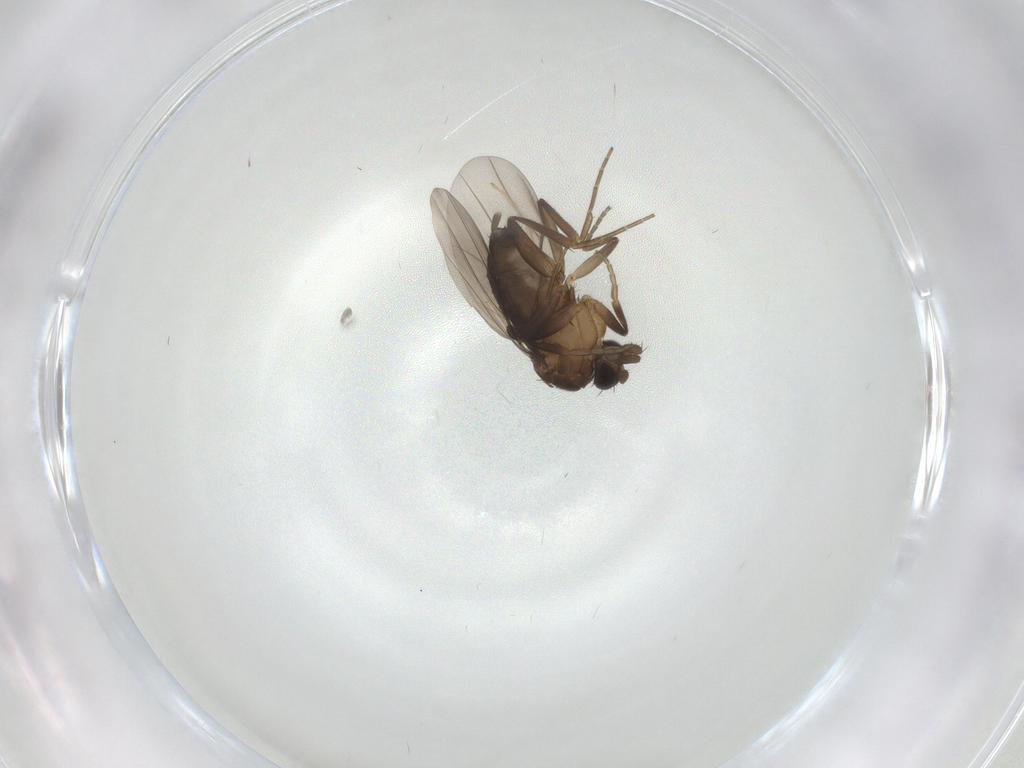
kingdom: Animalia
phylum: Arthropoda
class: Insecta
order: Diptera
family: Phoridae
